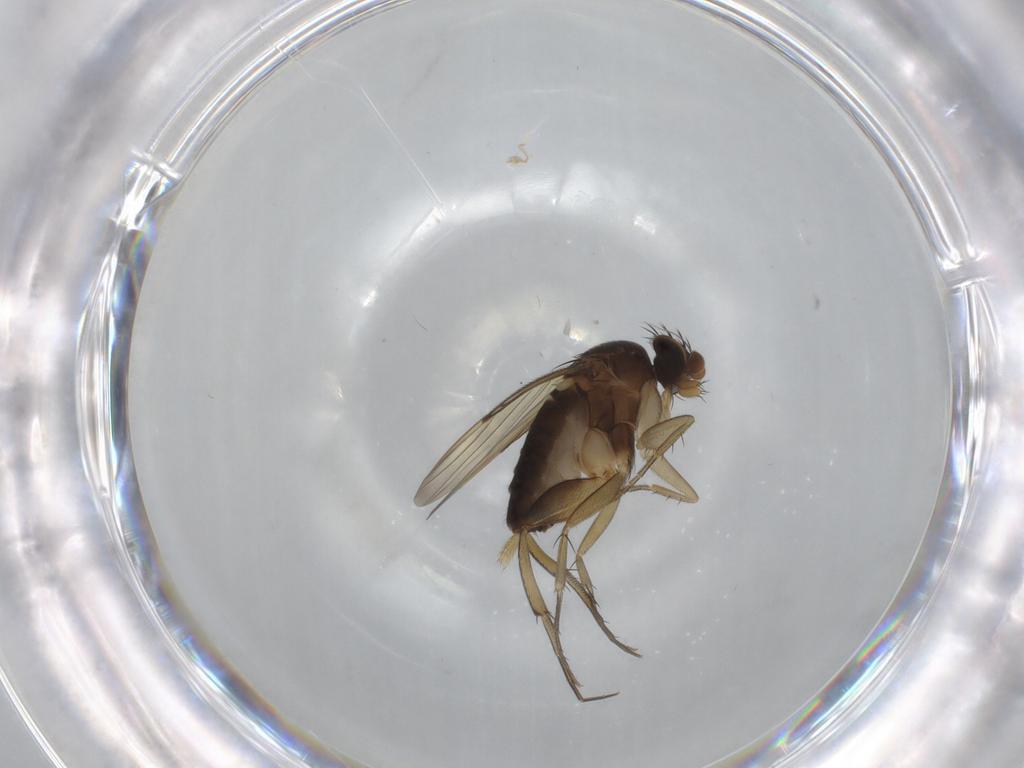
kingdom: Animalia
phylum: Arthropoda
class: Insecta
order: Diptera
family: Phoridae
